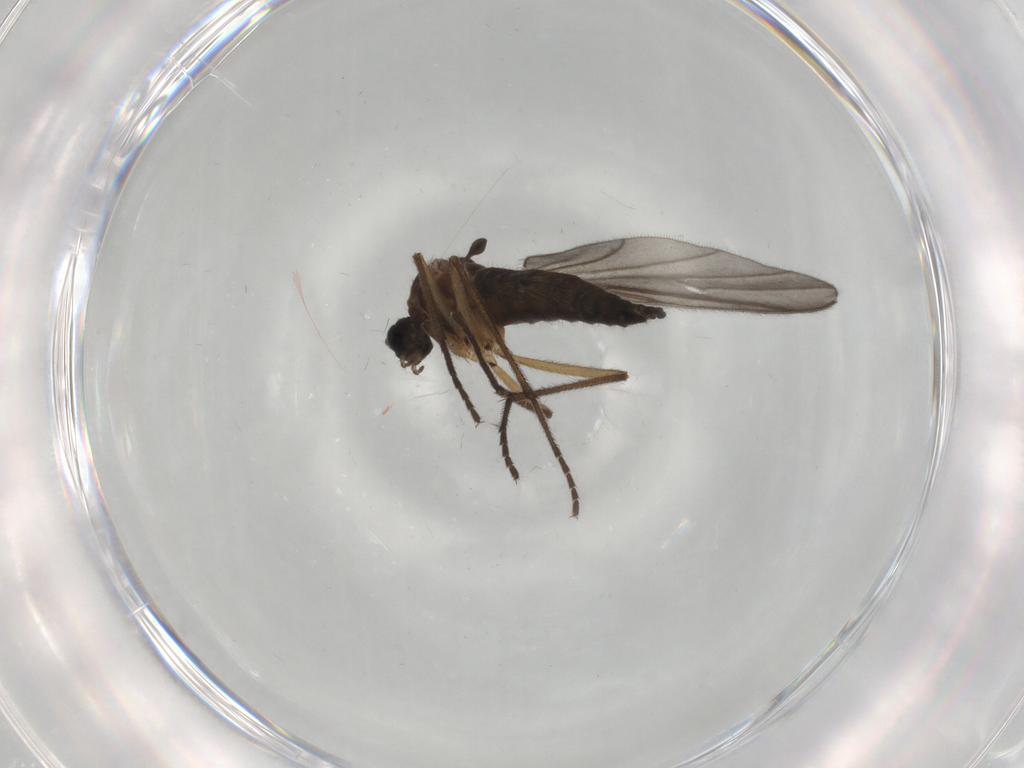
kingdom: Animalia
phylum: Arthropoda
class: Insecta
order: Diptera
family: Sciaridae
